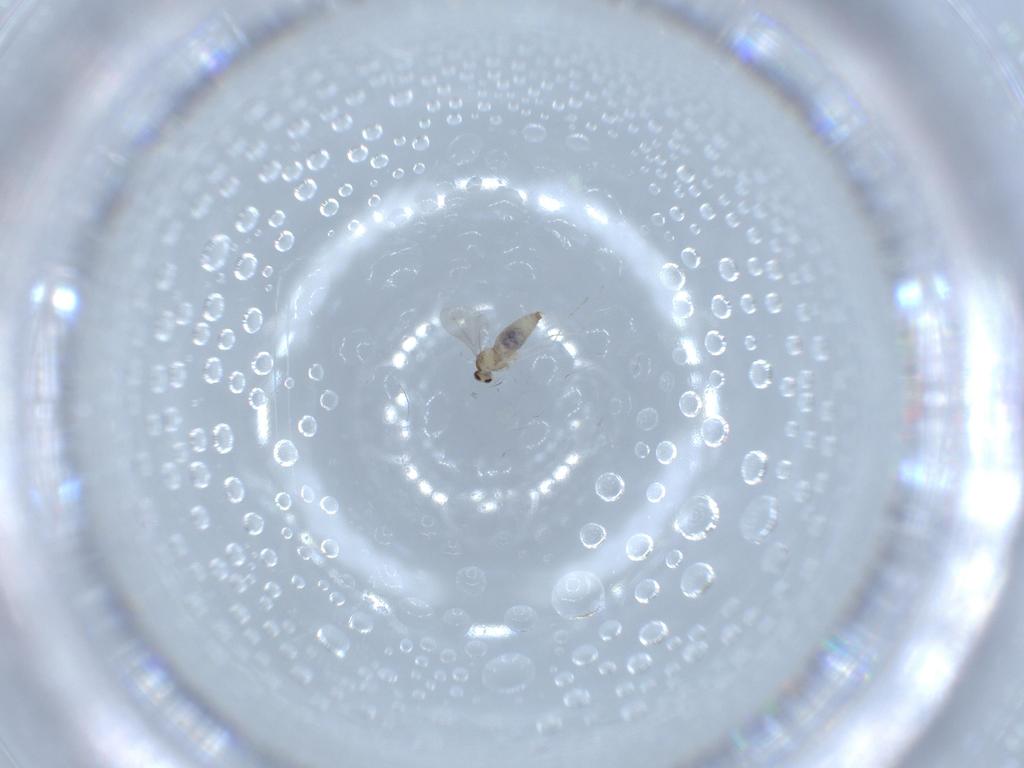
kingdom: Animalia
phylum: Arthropoda
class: Insecta
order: Diptera
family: Cecidomyiidae
